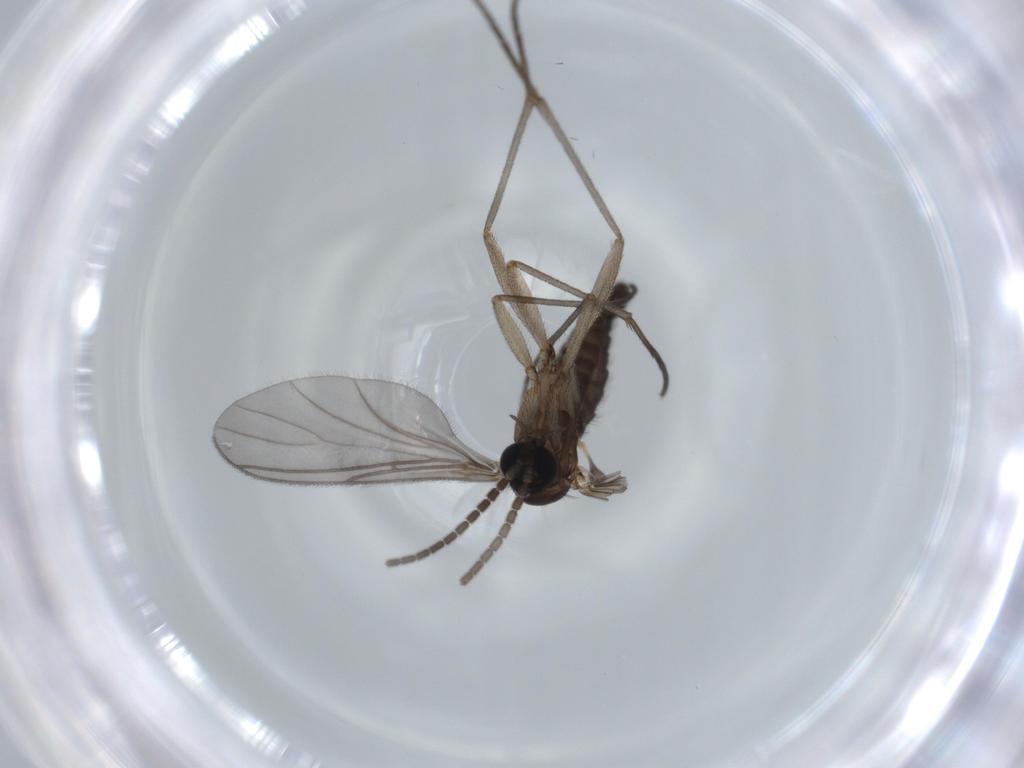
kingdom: Animalia
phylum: Arthropoda
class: Insecta
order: Diptera
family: Sciaridae
